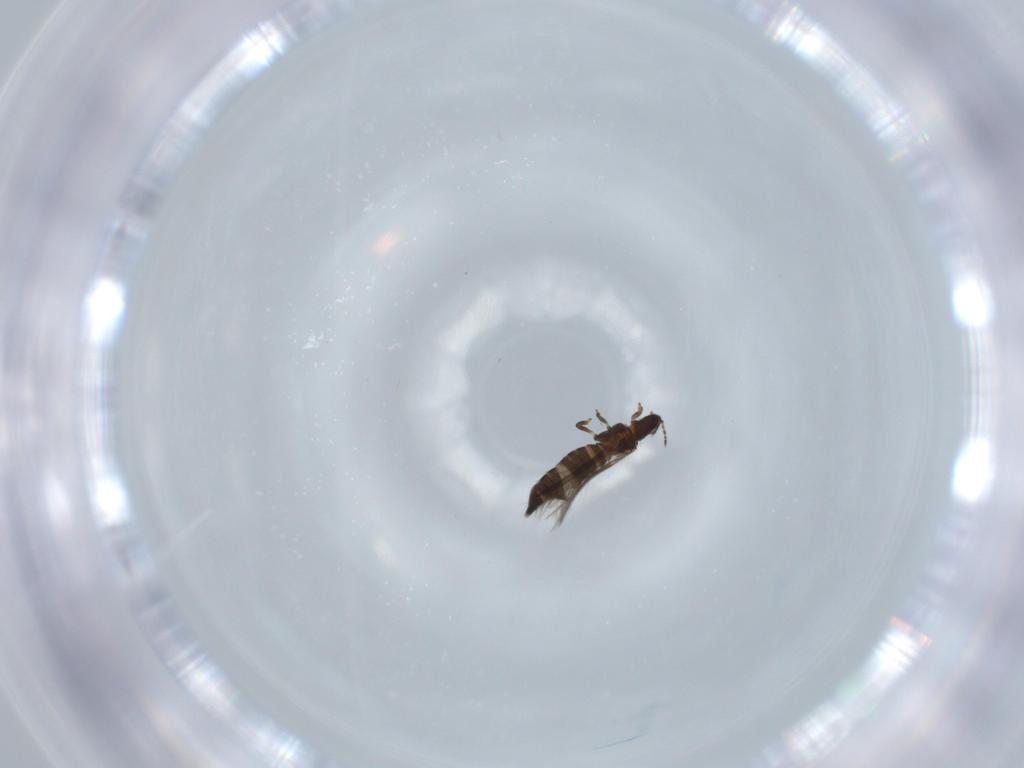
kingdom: Animalia
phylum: Arthropoda
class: Insecta
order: Thysanoptera
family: Thripidae
